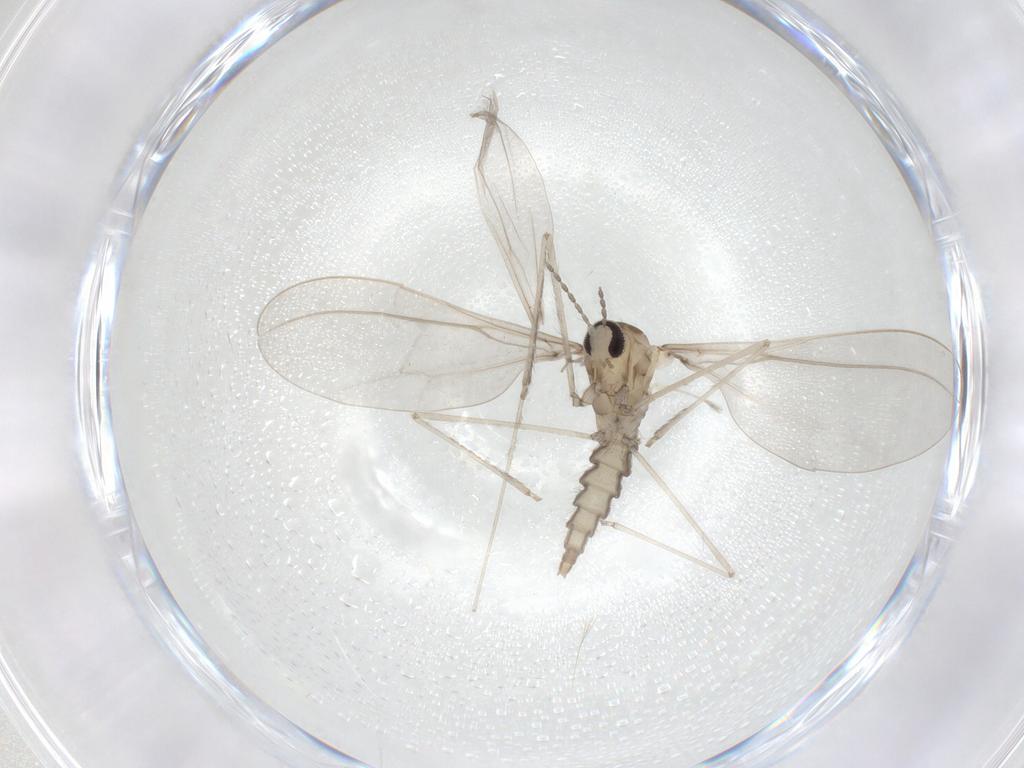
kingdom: Animalia
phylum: Arthropoda
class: Insecta
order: Diptera
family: Cecidomyiidae
